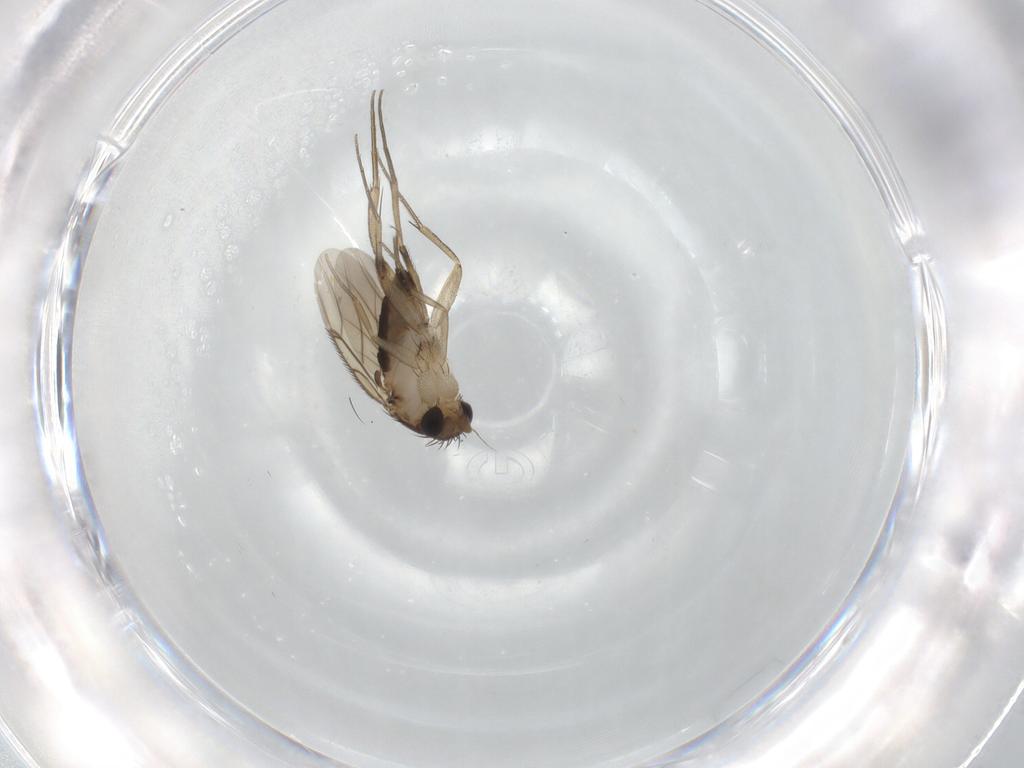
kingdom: Animalia
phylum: Arthropoda
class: Insecta
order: Diptera
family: Phoridae
